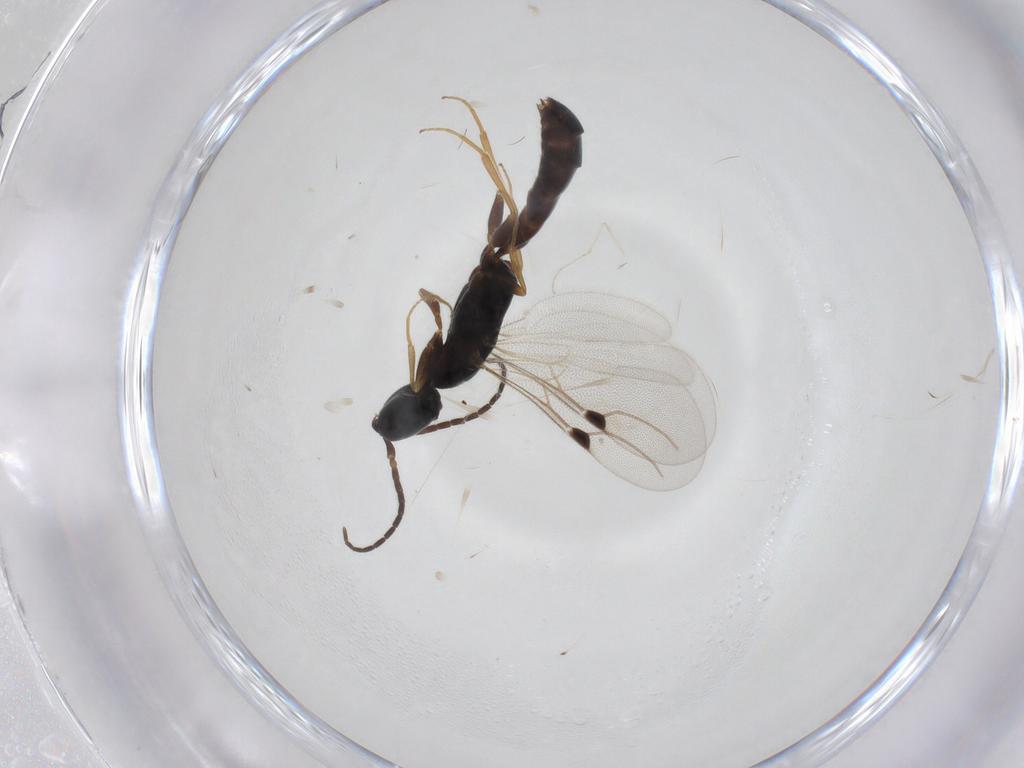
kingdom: Animalia
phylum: Arthropoda
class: Insecta
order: Hymenoptera
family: Bethylidae
